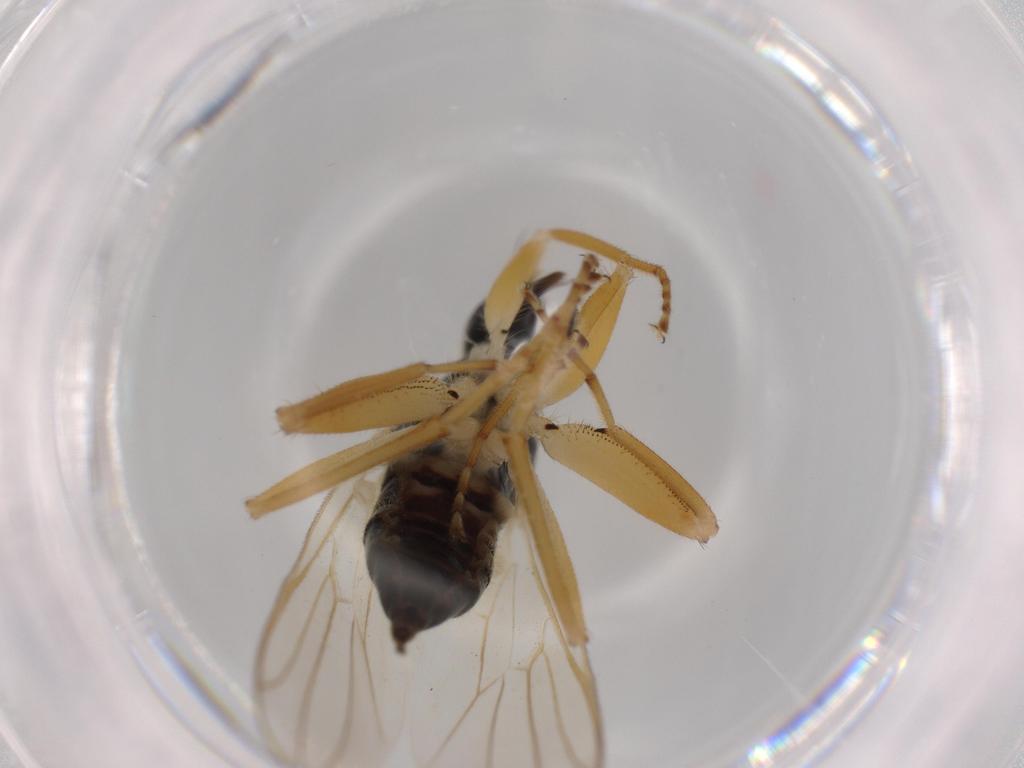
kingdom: Animalia
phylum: Arthropoda
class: Insecta
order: Diptera
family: Hybotidae
